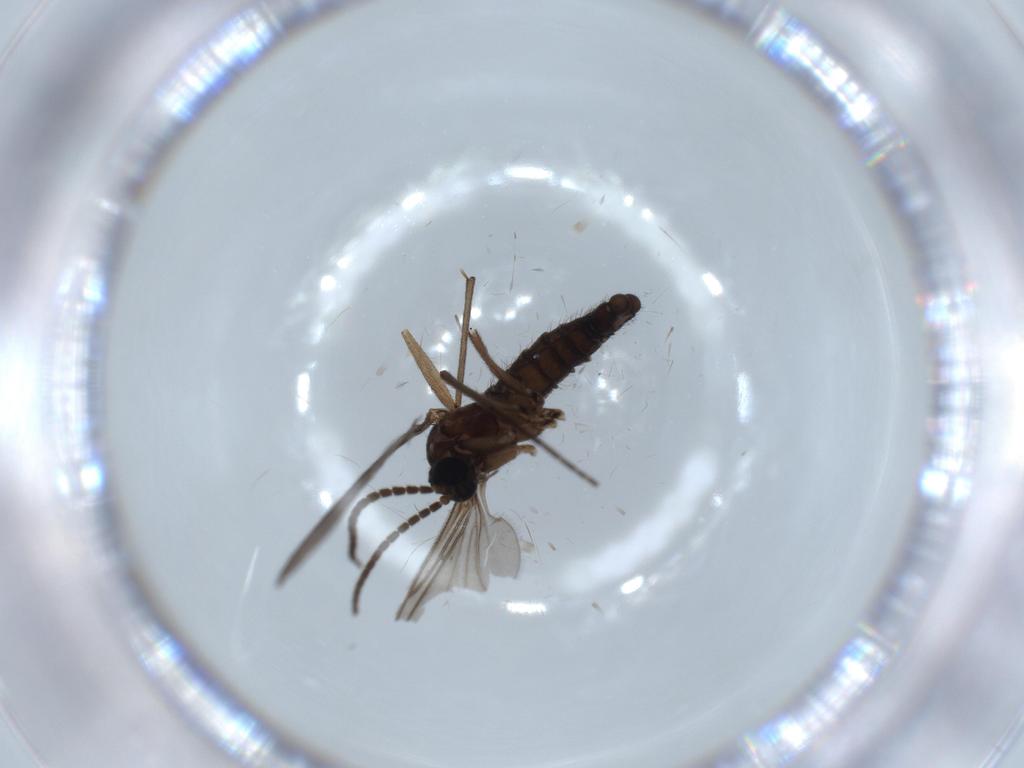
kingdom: Animalia
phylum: Arthropoda
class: Insecta
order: Diptera
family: Sciaridae
